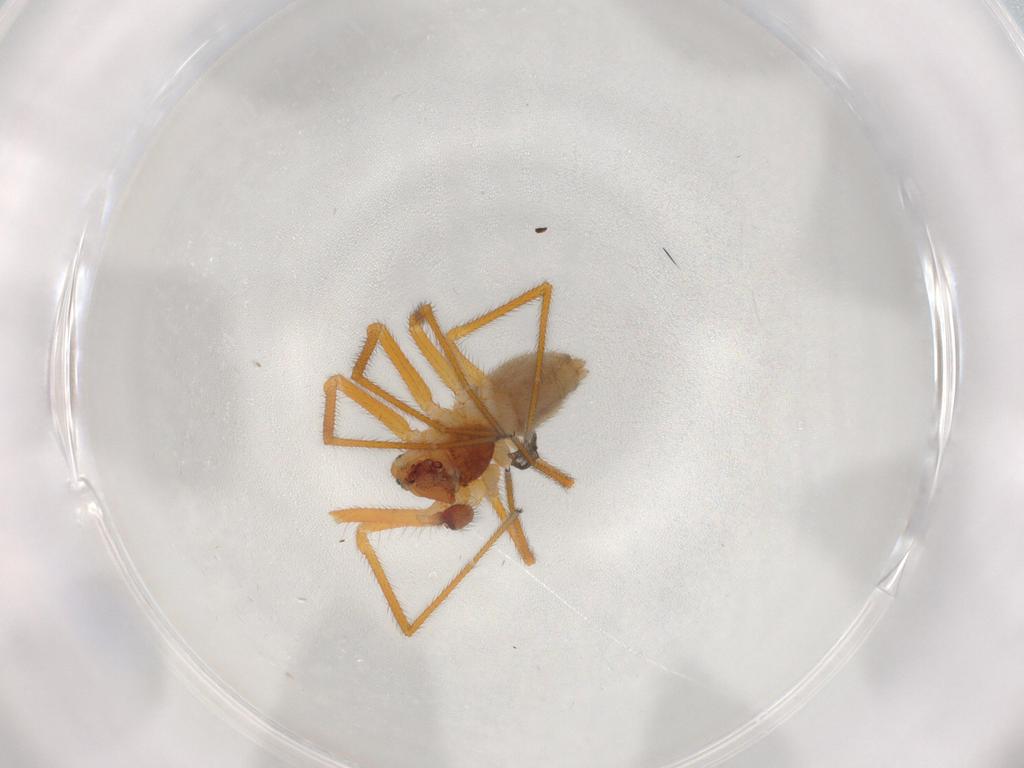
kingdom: Animalia
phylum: Arthropoda
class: Arachnida
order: Araneae
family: Linyphiidae
